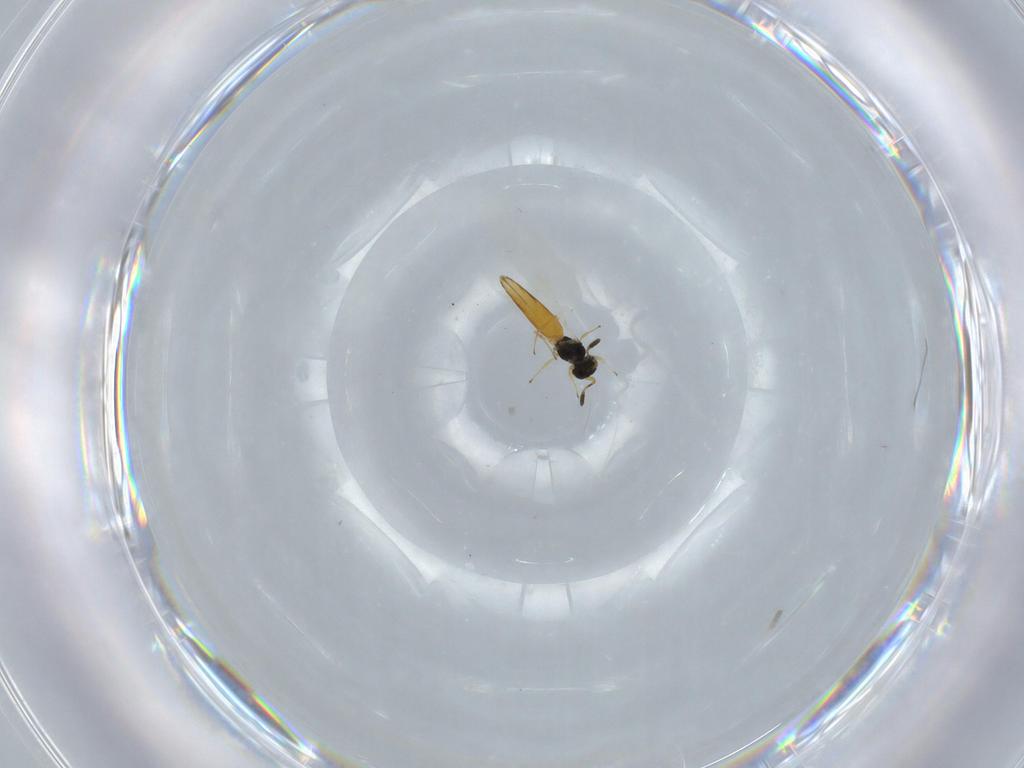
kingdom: Animalia
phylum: Arthropoda
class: Insecta
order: Hymenoptera
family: Scelionidae
